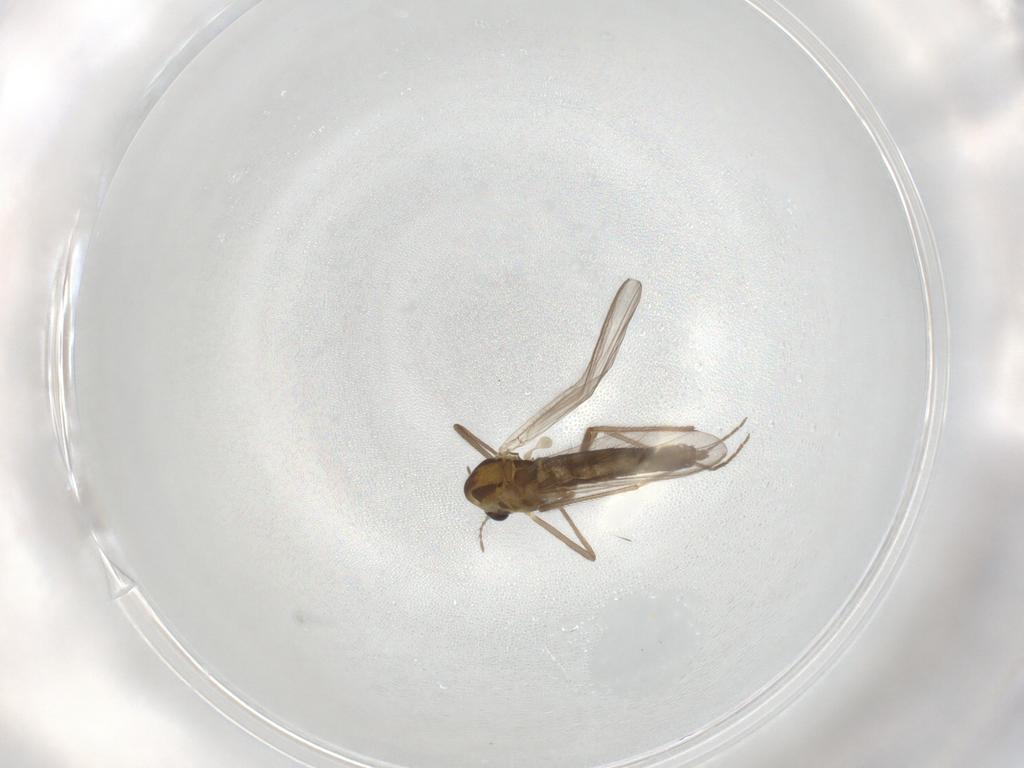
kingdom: Animalia
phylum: Arthropoda
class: Insecta
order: Diptera
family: Chironomidae
